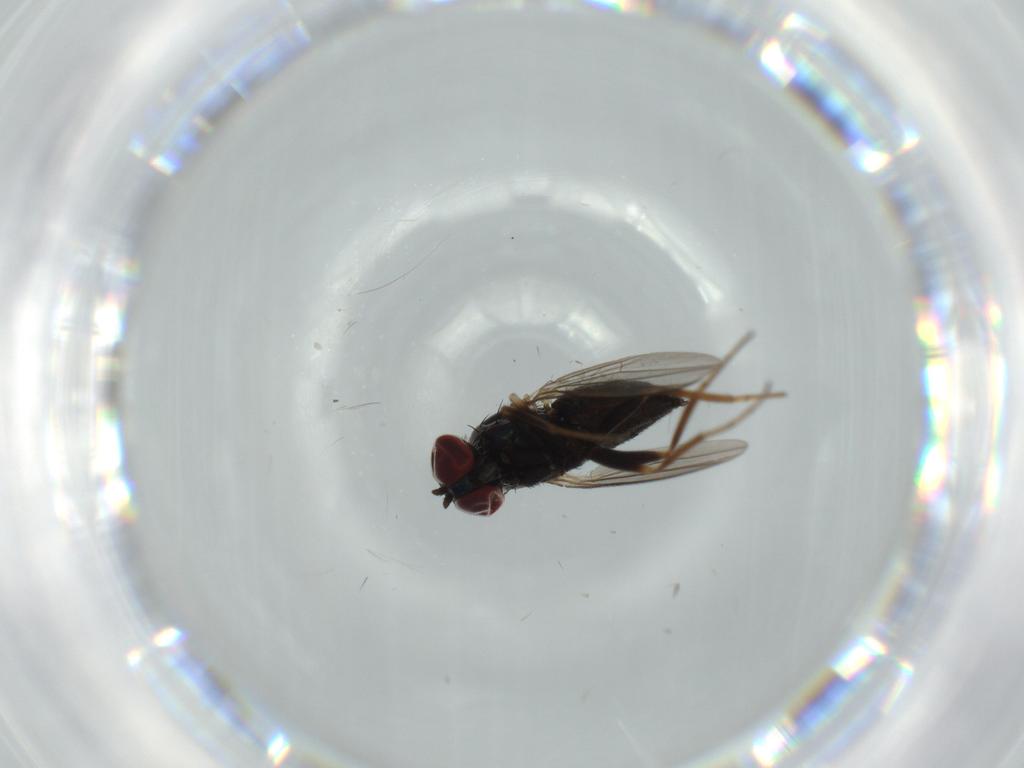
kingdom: Animalia
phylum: Arthropoda
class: Insecta
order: Diptera
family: Dolichopodidae
